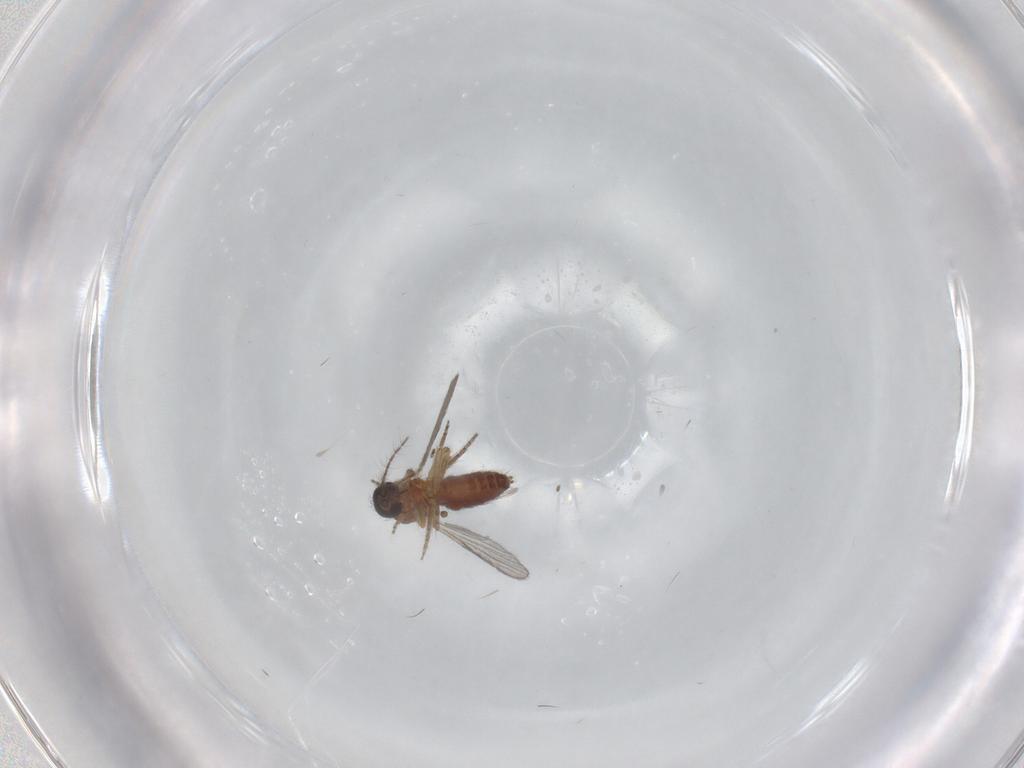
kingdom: Animalia
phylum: Arthropoda
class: Insecta
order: Diptera
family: Ceratopogonidae
